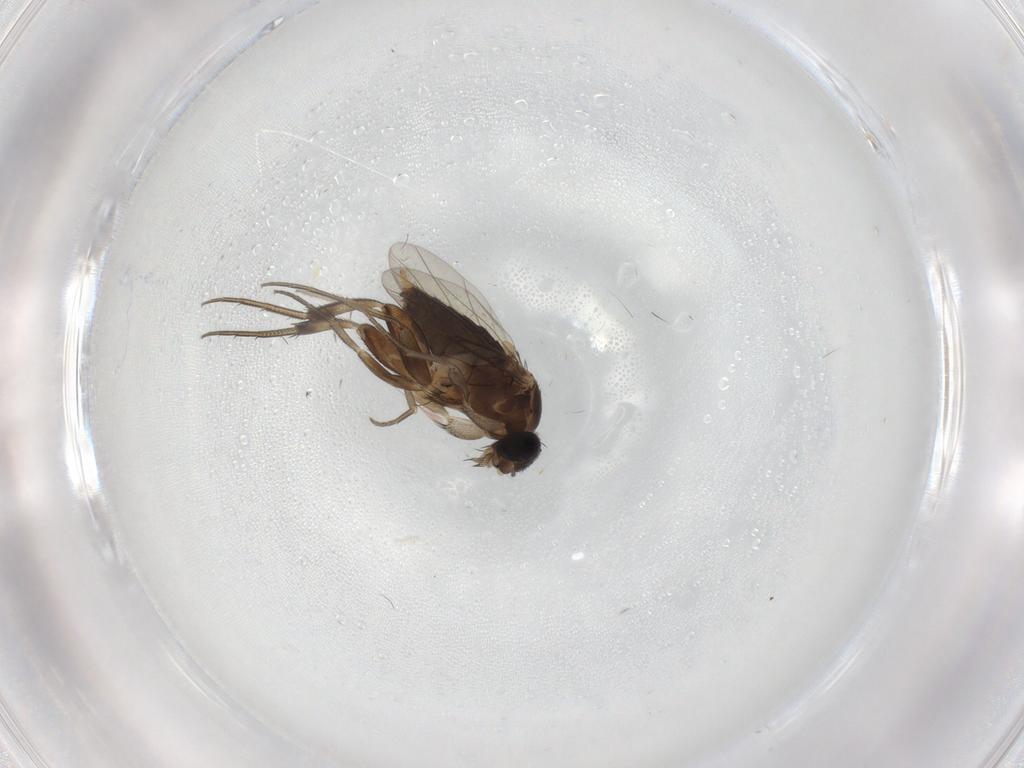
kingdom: Animalia
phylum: Arthropoda
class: Insecta
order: Diptera
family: Phoridae
